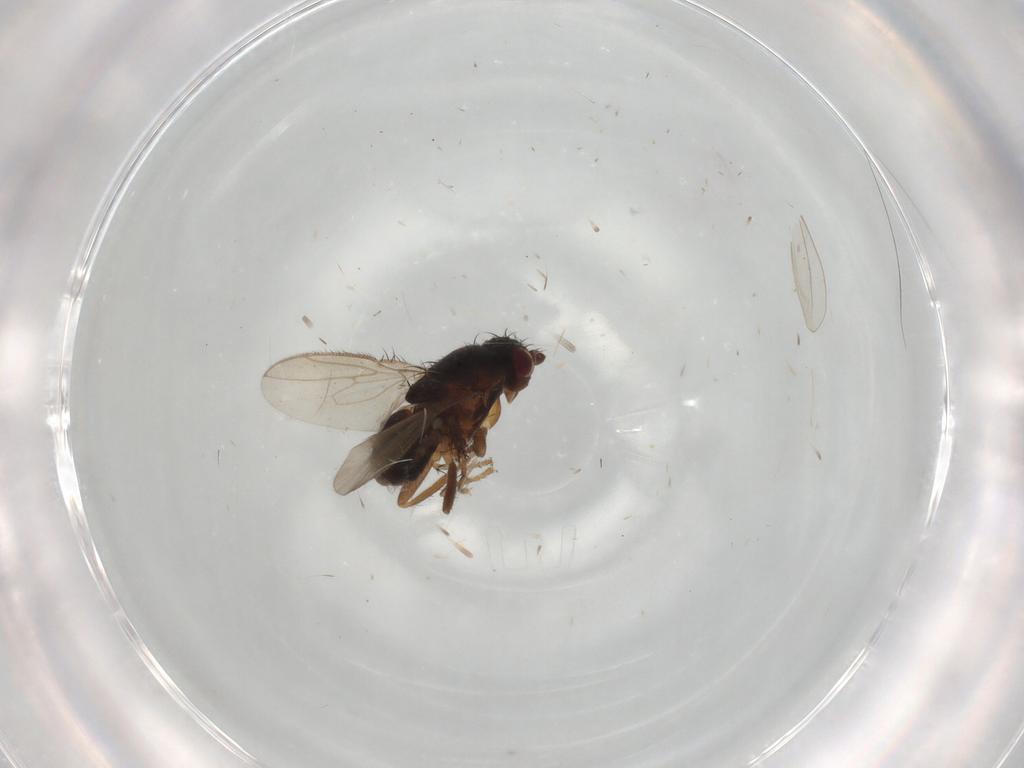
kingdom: Animalia
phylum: Arthropoda
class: Insecta
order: Diptera
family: Sphaeroceridae
